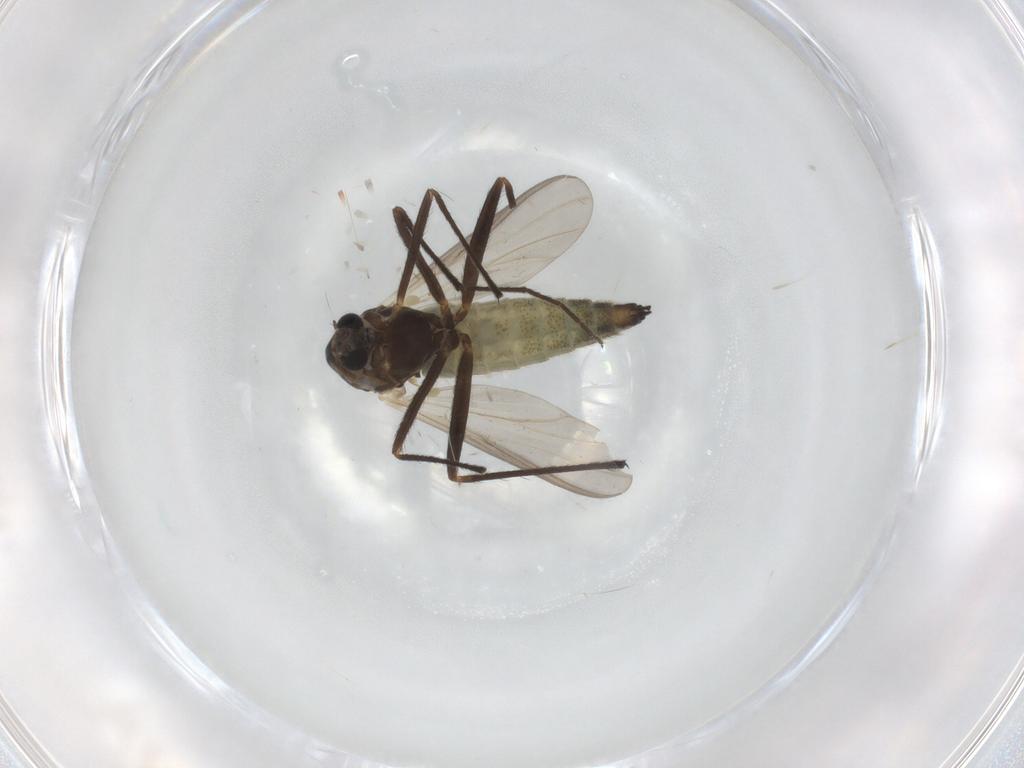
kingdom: Animalia
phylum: Arthropoda
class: Insecta
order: Diptera
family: Chironomidae
